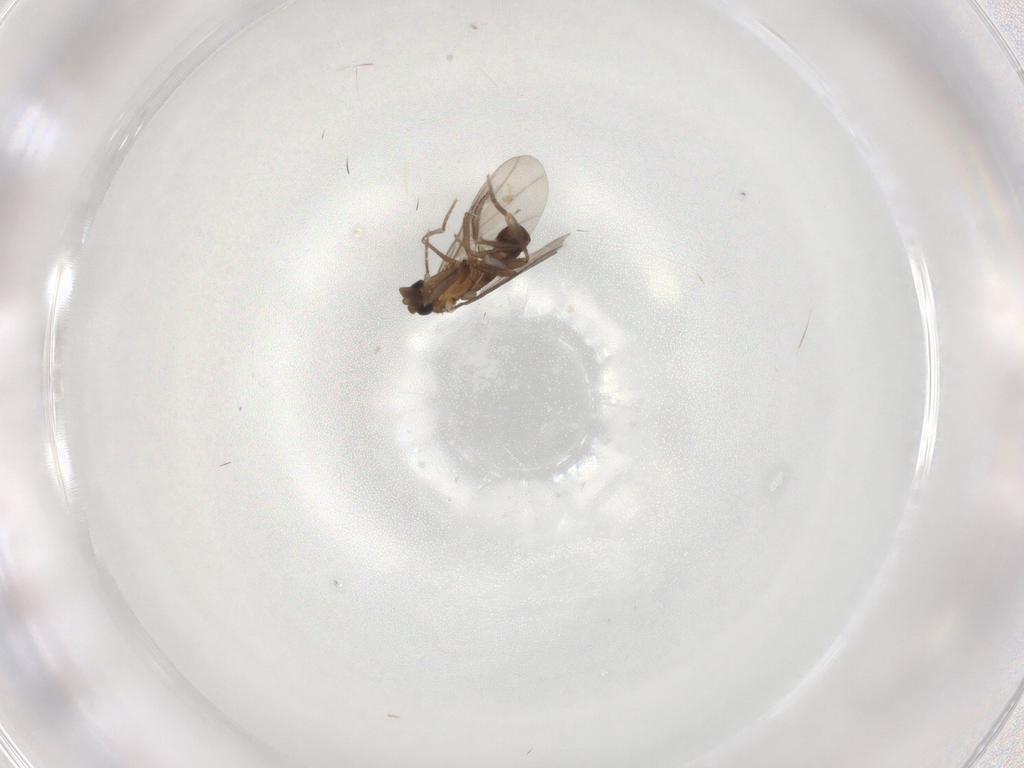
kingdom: Animalia
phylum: Arthropoda
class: Insecta
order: Diptera
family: Phoridae
